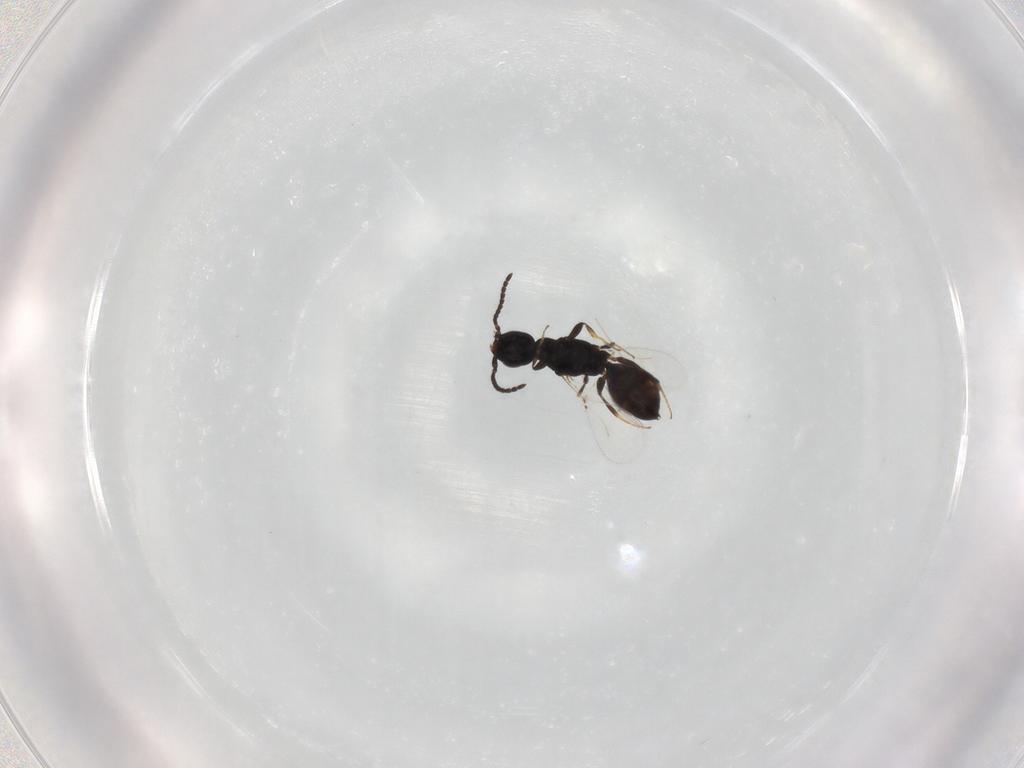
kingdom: Animalia
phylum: Arthropoda
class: Insecta
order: Hymenoptera
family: Bethylidae
